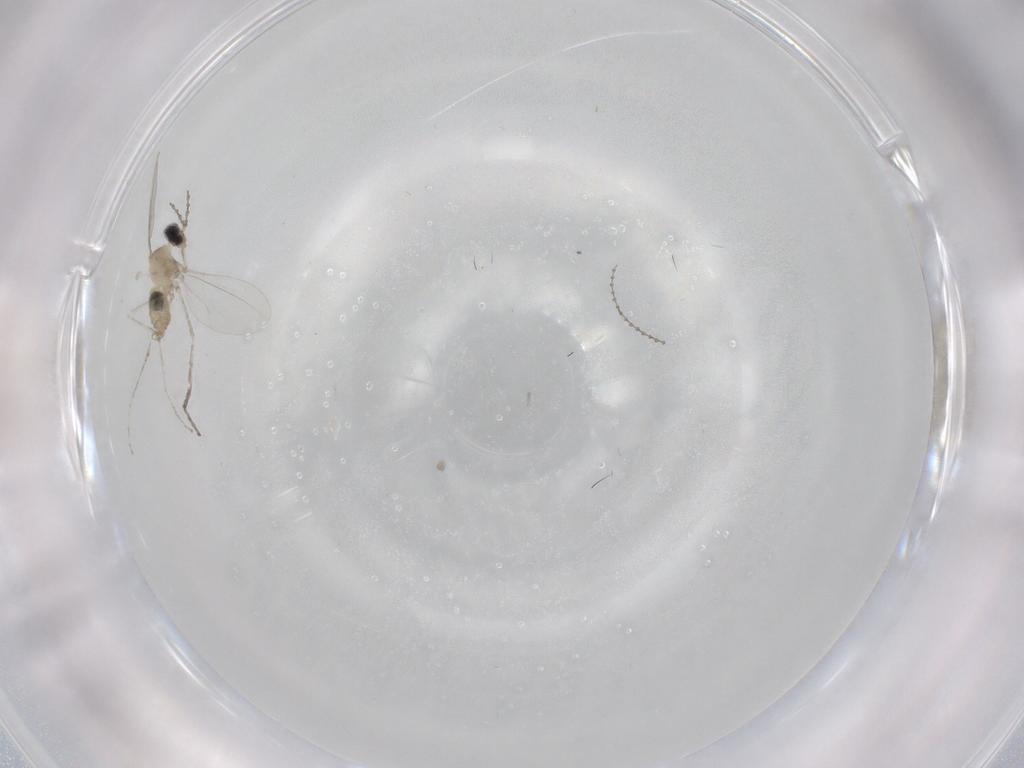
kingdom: Animalia
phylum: Arthropoda
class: Insecta
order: Diptera
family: Cecidomyiidae
